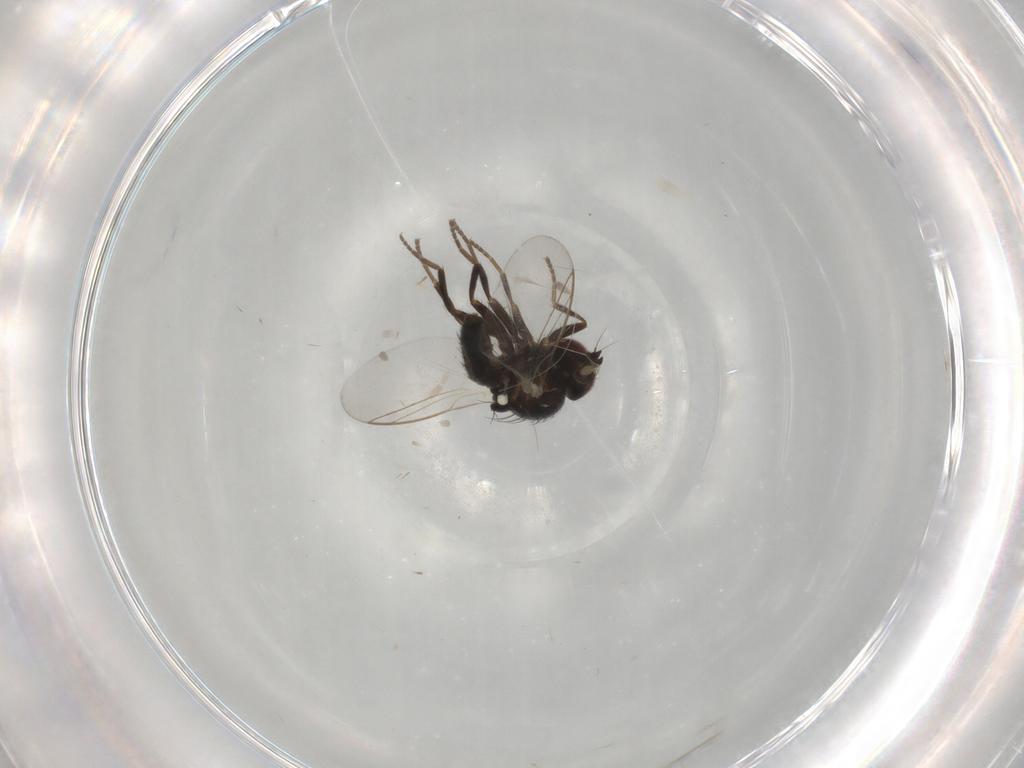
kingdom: Animalia
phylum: Arthropoda
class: Insecta
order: Diptera
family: Agromyzidae
